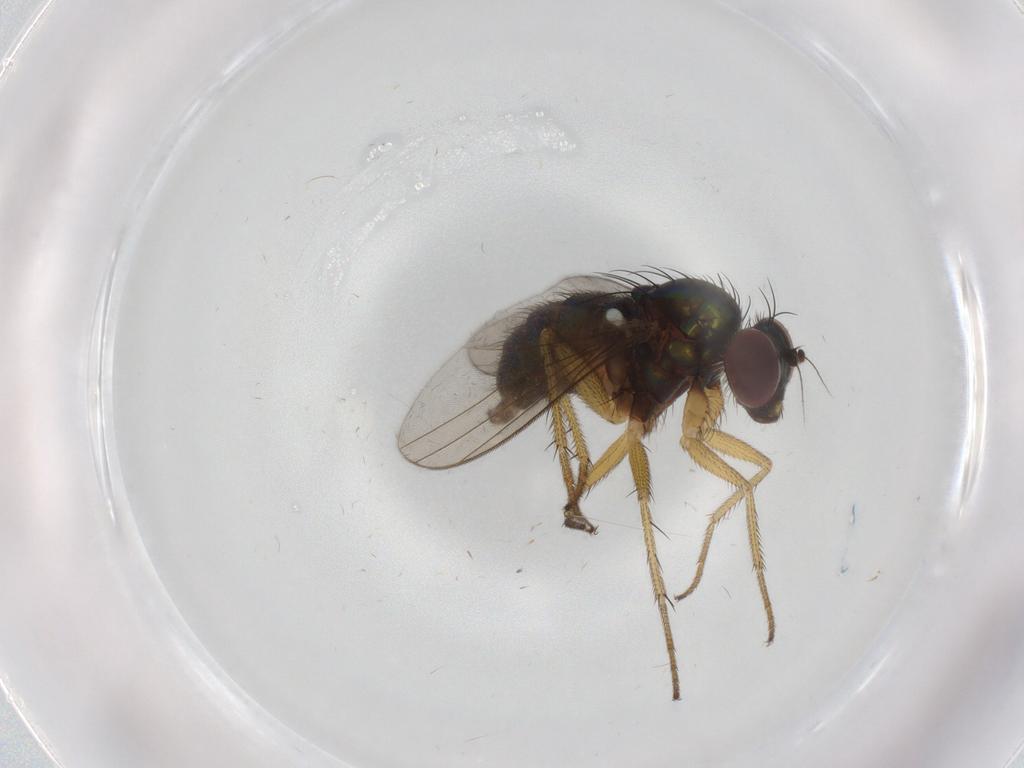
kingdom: Animalia
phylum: Arthropoda
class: Insecta
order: Diptera
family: Dolichopodidae
